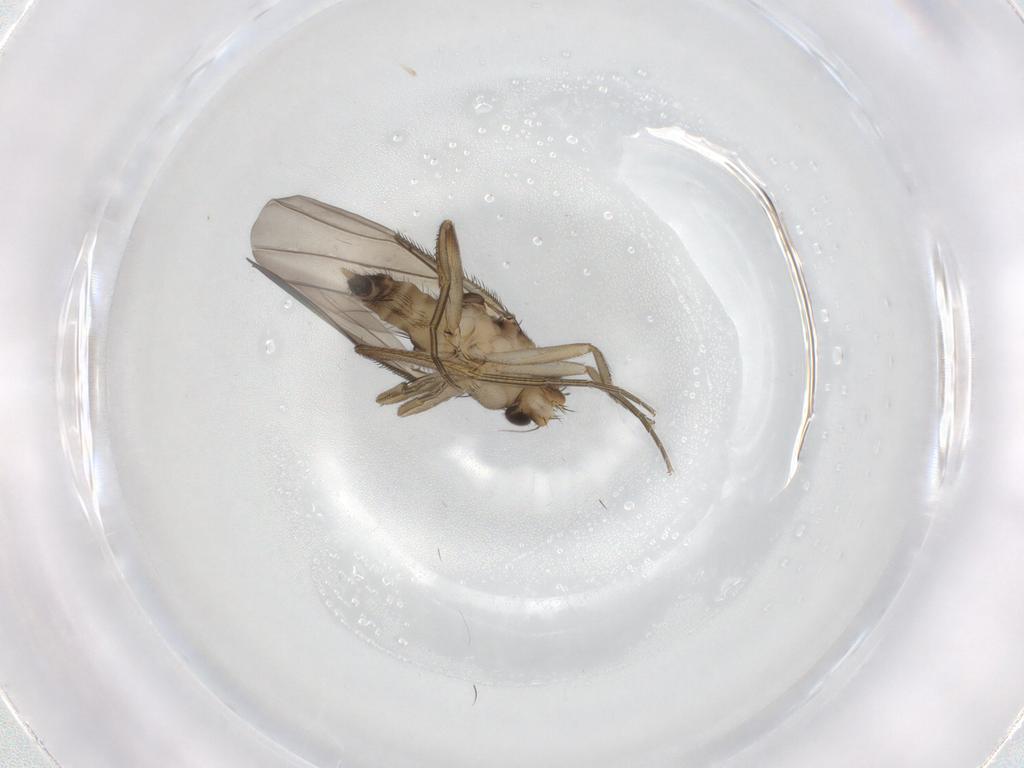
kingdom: Animalia
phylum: Arthropoda
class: Insecta
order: Diptera
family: Phoridae
